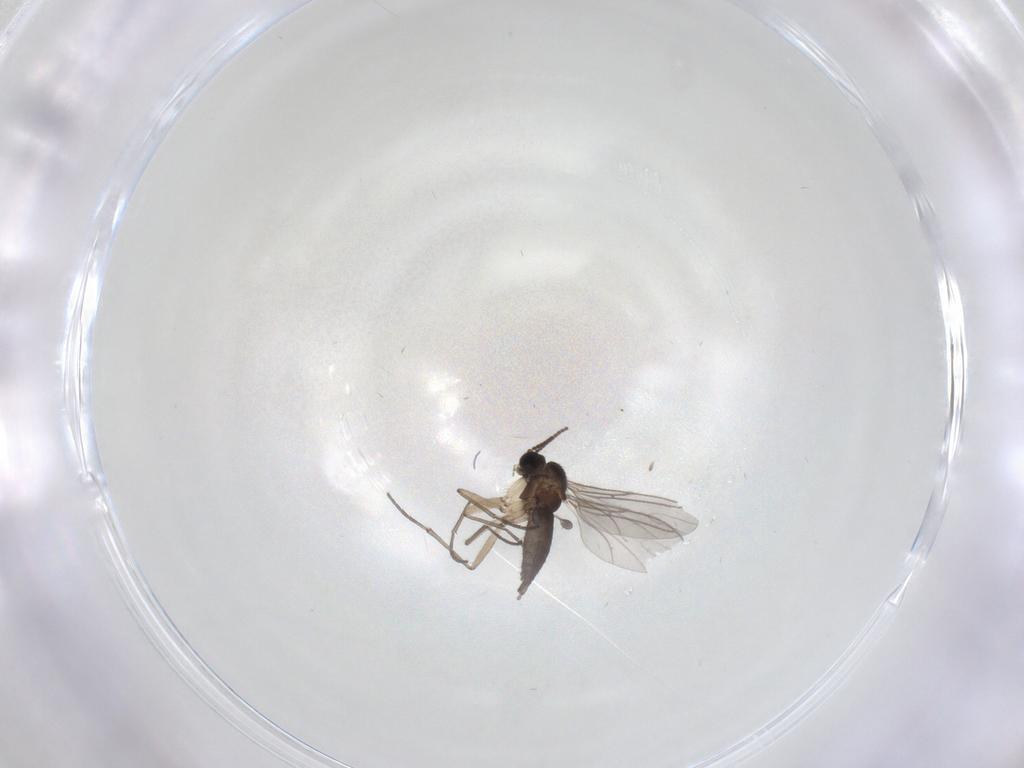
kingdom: Animalia
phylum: Arthropoda
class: Insecta
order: Diptera
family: Sciaridae
